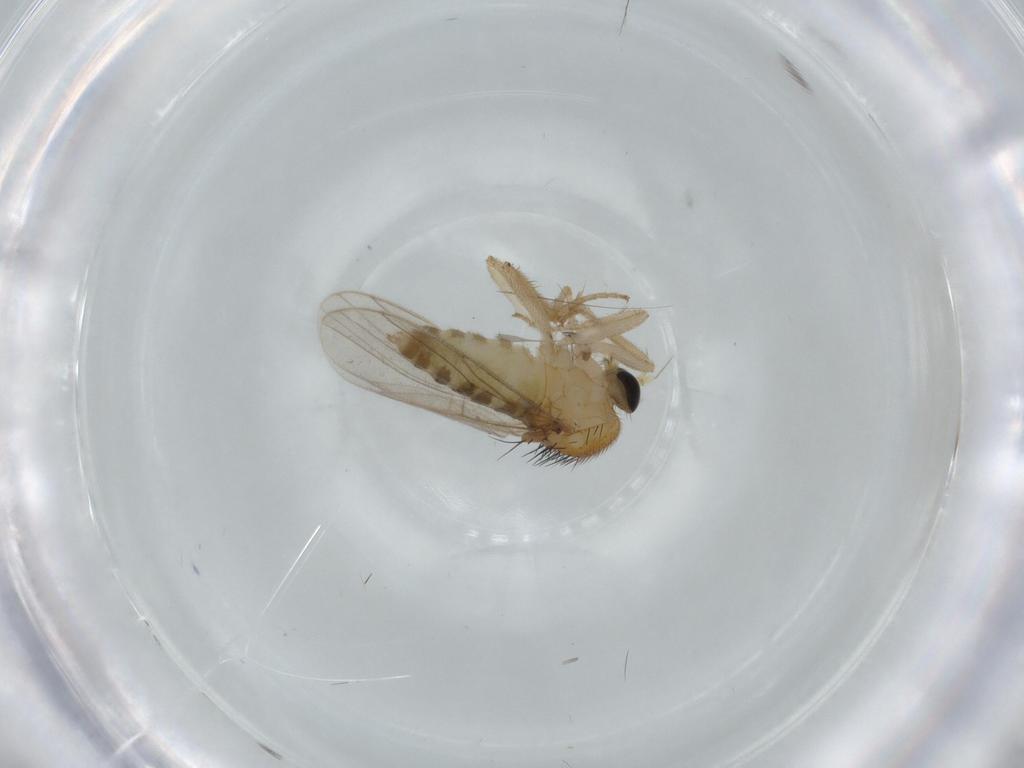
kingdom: Animalia
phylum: Arthropoda
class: Insecta
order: Diptera
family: Hybotidae
